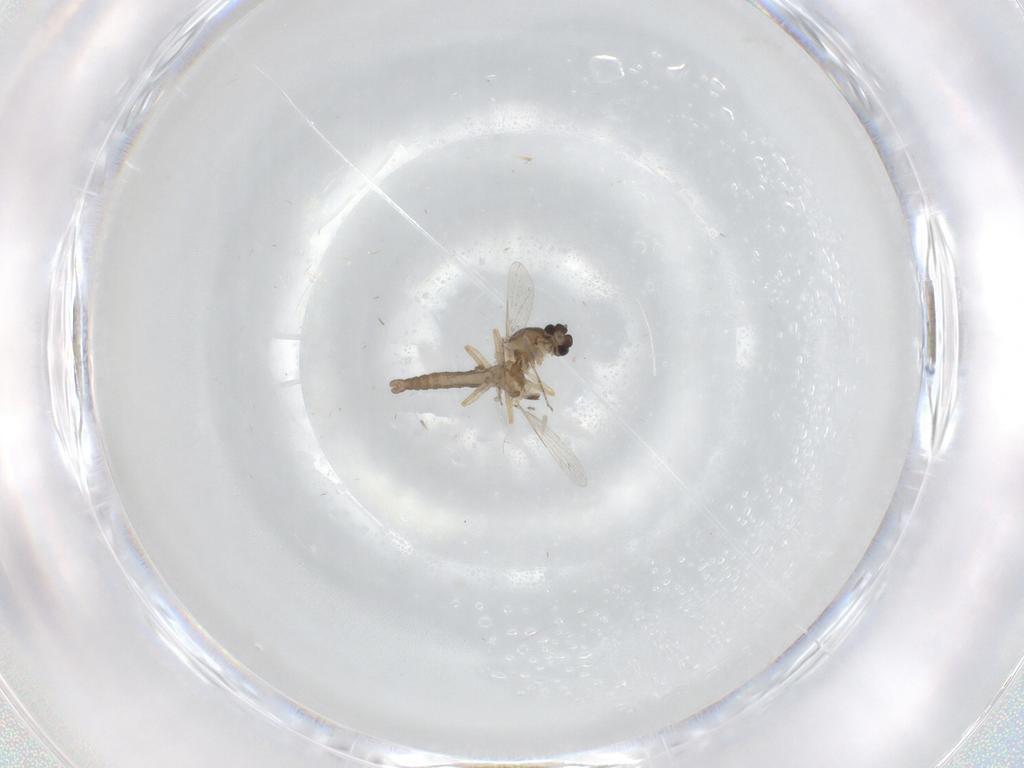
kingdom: Animalia
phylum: Arthropoda
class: Insecta
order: Diptera
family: Ceratopogonidae
